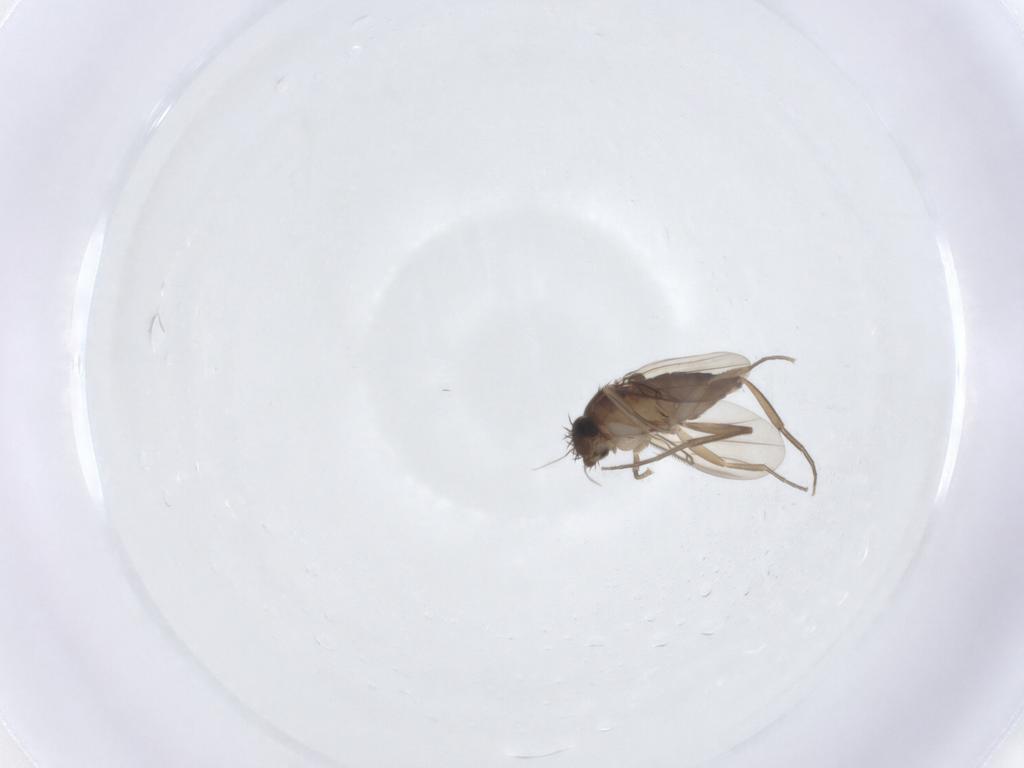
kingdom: Animalia
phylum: Arthropoda
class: Insecta
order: Diptera
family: Phoridae
